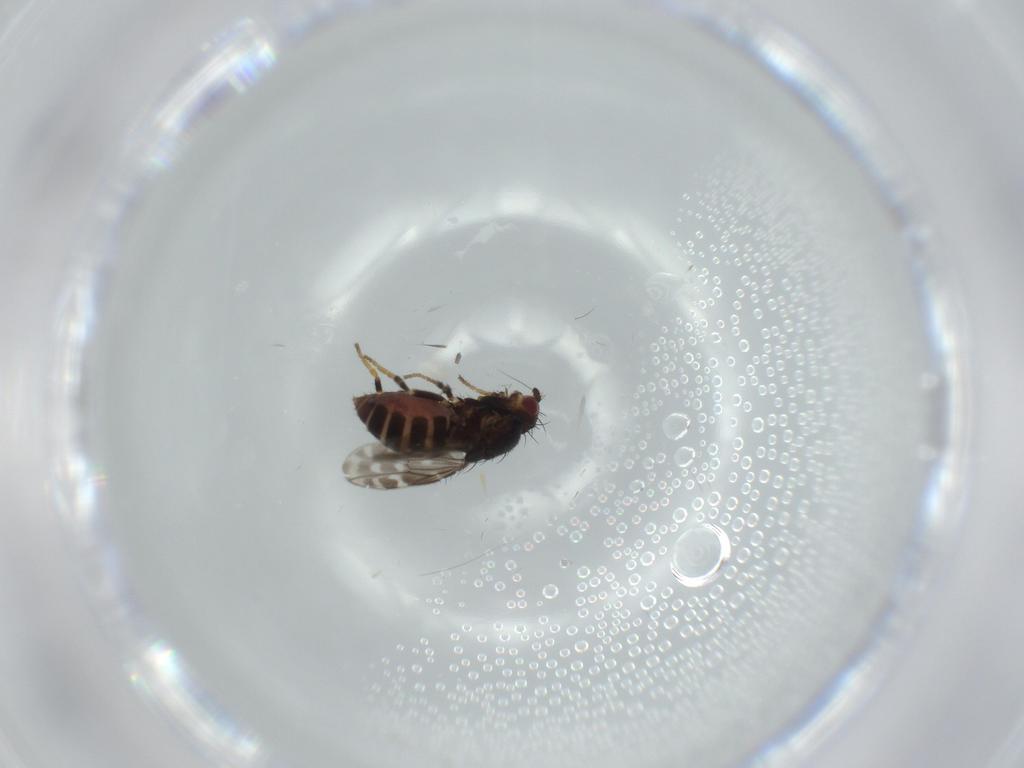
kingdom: Animalia
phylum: Arthropoda
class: Insecta
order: Diptera
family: Sphaeroceridae
